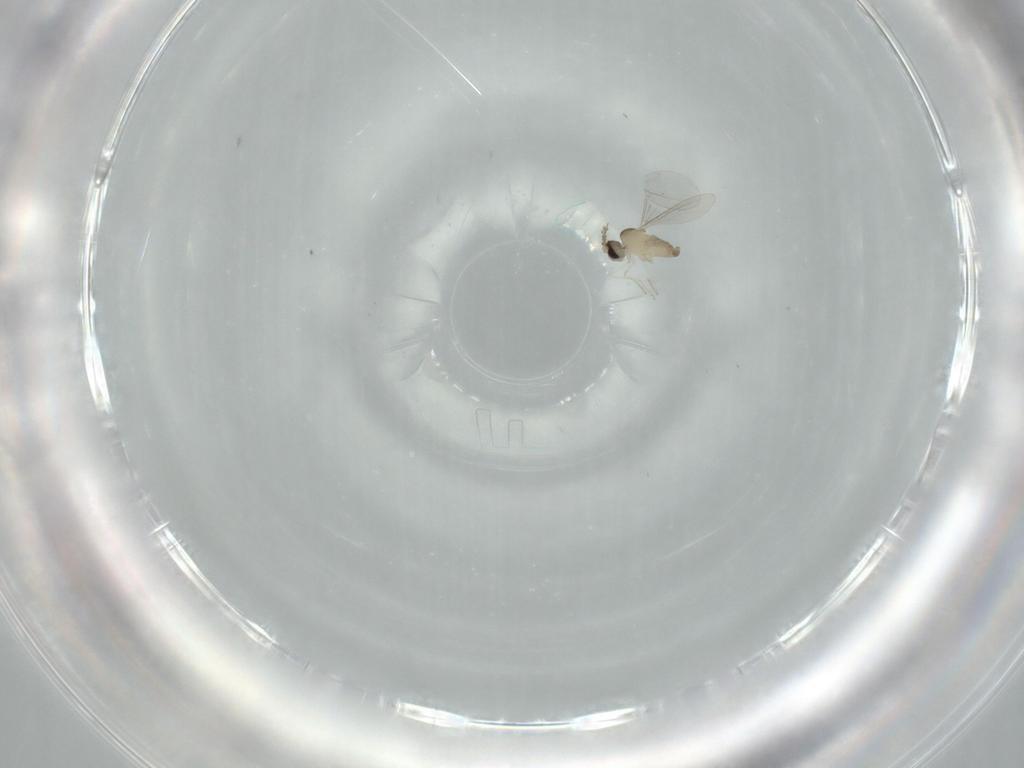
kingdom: Animalia
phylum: Arthropoda
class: Insecta
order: Diptera
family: Cecidomyiidae
